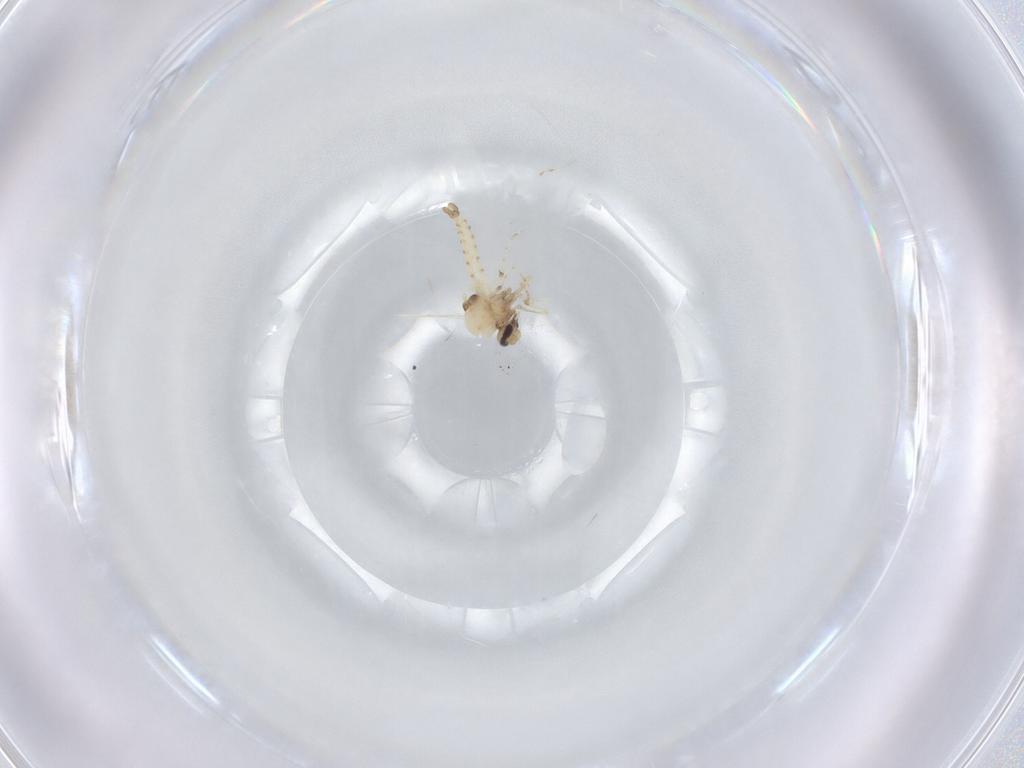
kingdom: Animalia
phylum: Arthropoda
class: Insecta
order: Diptera
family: Ceratopogonidae
